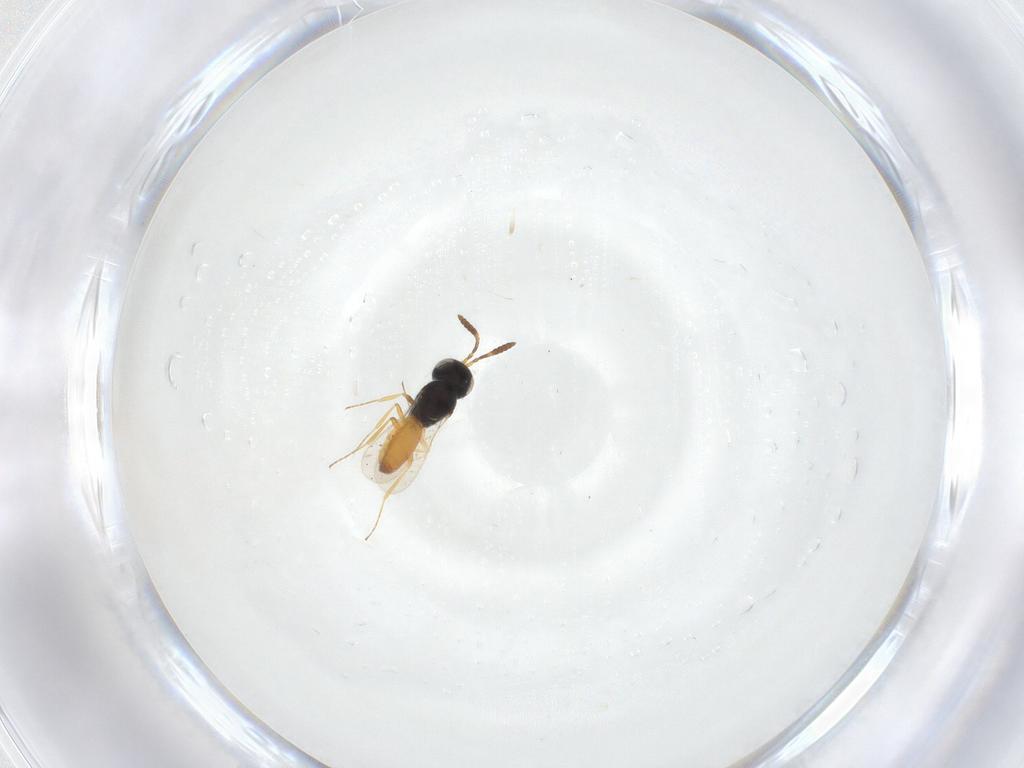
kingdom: Animalia
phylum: Arthropoda
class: Insecta
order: Hymenoptera
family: Scelionidae
